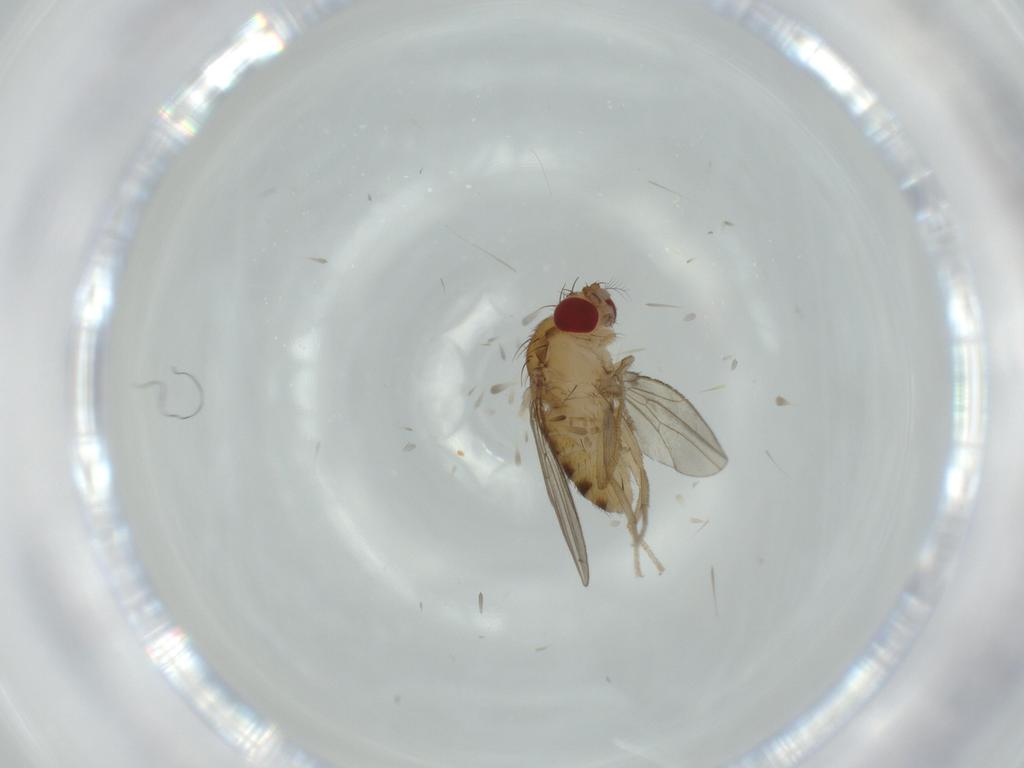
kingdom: Animalia
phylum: Arthropoda
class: Insecta
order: Diptera
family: Drosophilidae
